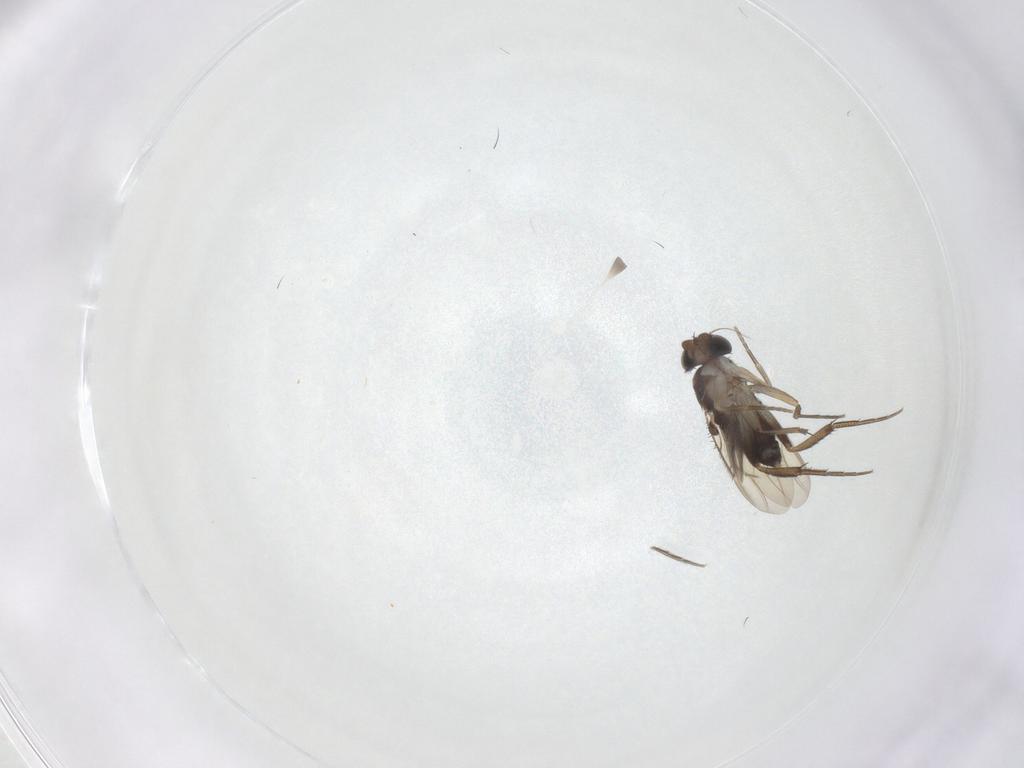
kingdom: Animalia
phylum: Arthropoda
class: Insecta
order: Diptera
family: Phoridae
